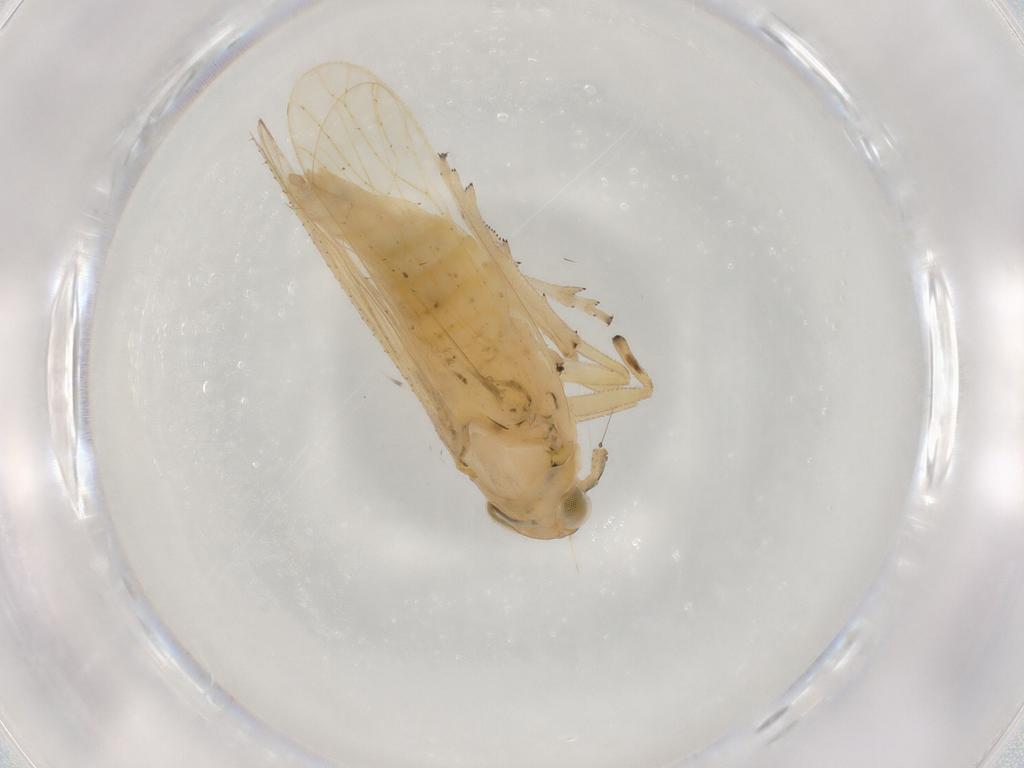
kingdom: Animalia
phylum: Arthropoda
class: Insecta
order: Hemiptera
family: Delphacidae
